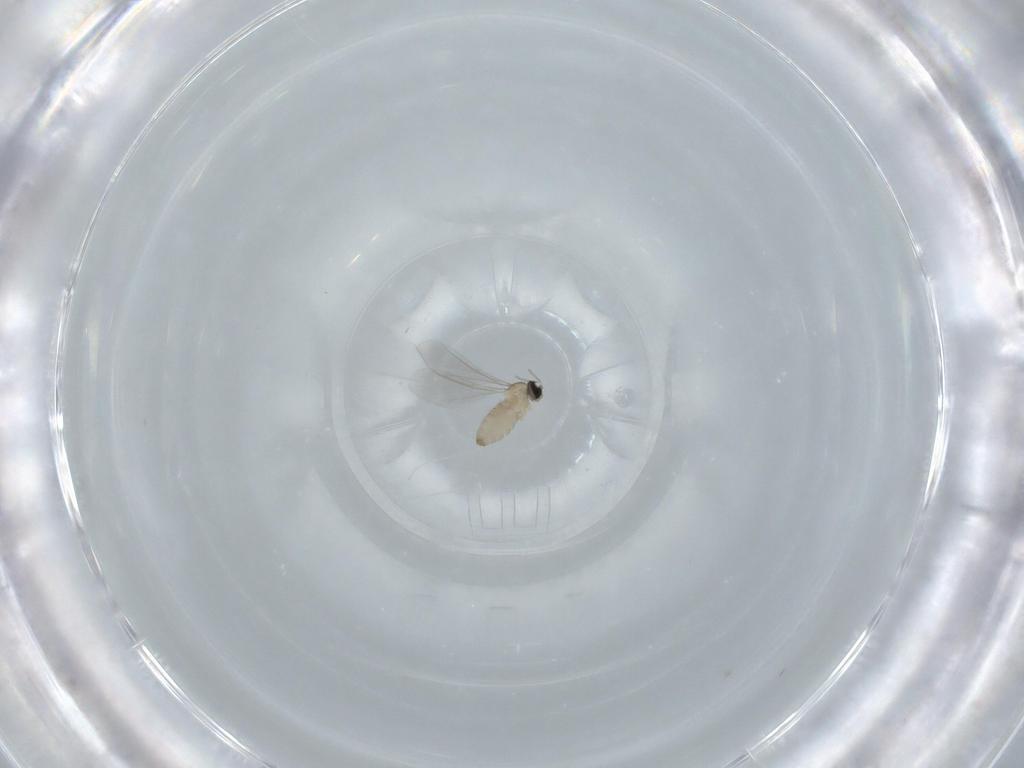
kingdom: Animalia
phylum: Arthropoda
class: Insecta
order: Diptera
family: Cecidomyiidae
